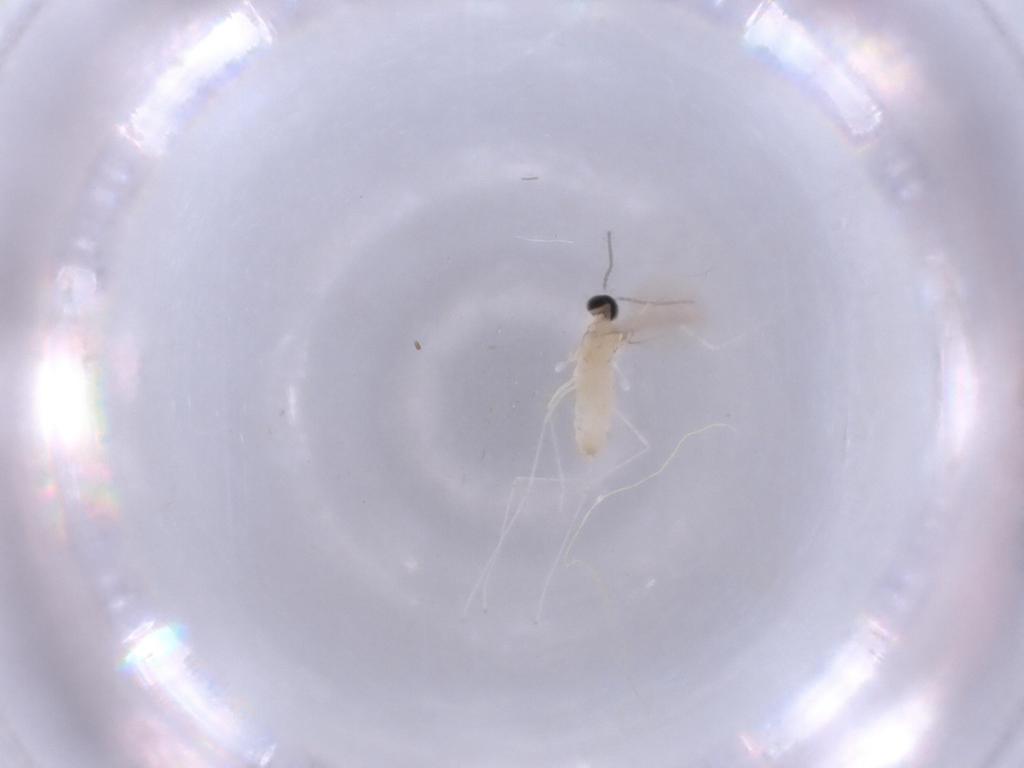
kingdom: Animalia
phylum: Arthropoda
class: Insecta
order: Diptera
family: Cecidomyiidae
